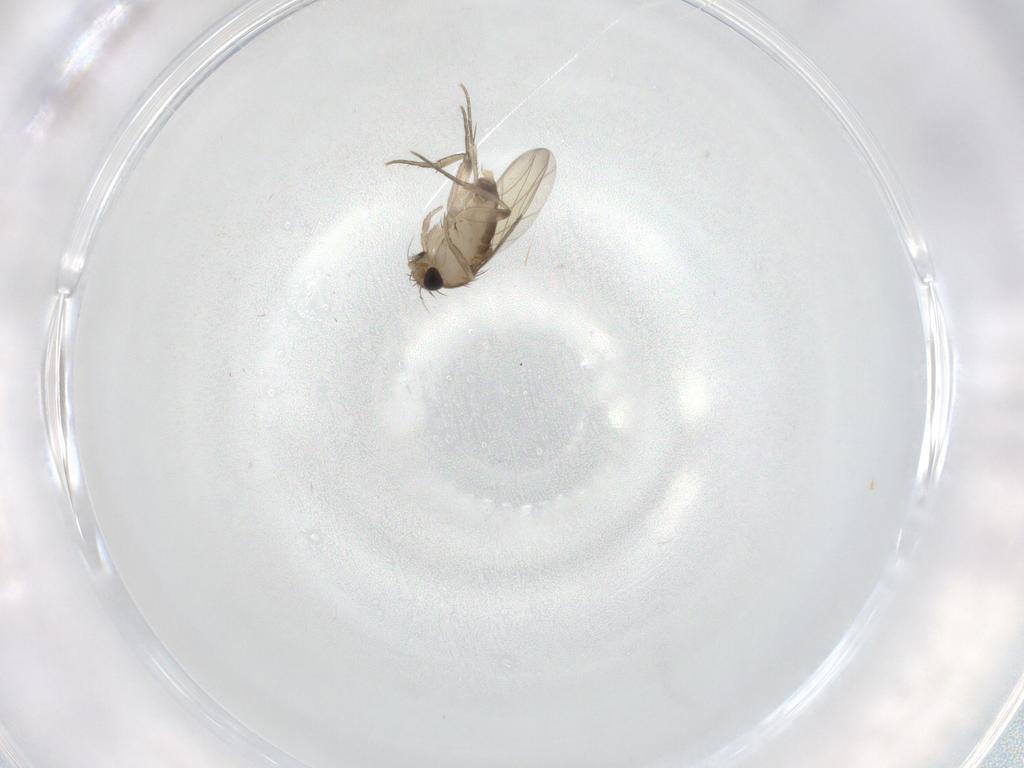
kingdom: Animalia
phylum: Arthropoda
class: Insecta
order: Diptera
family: Phoridae
